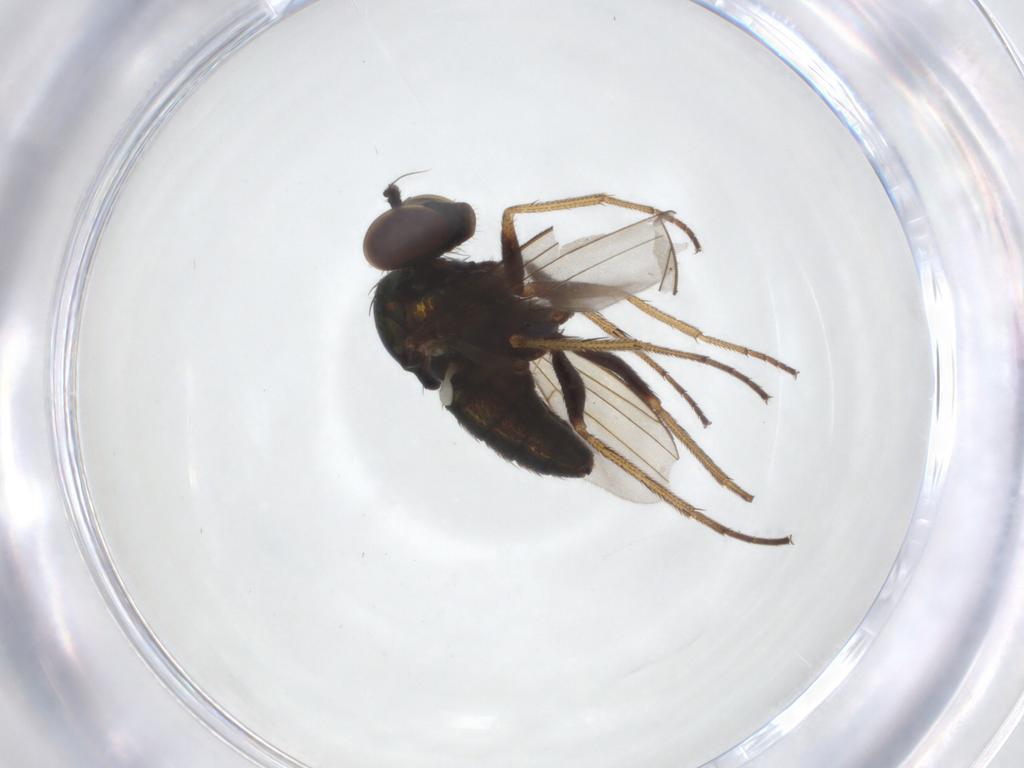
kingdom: Animalia
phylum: Arthropoda
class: Insecta
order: Diptera
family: Dolichopodidae
